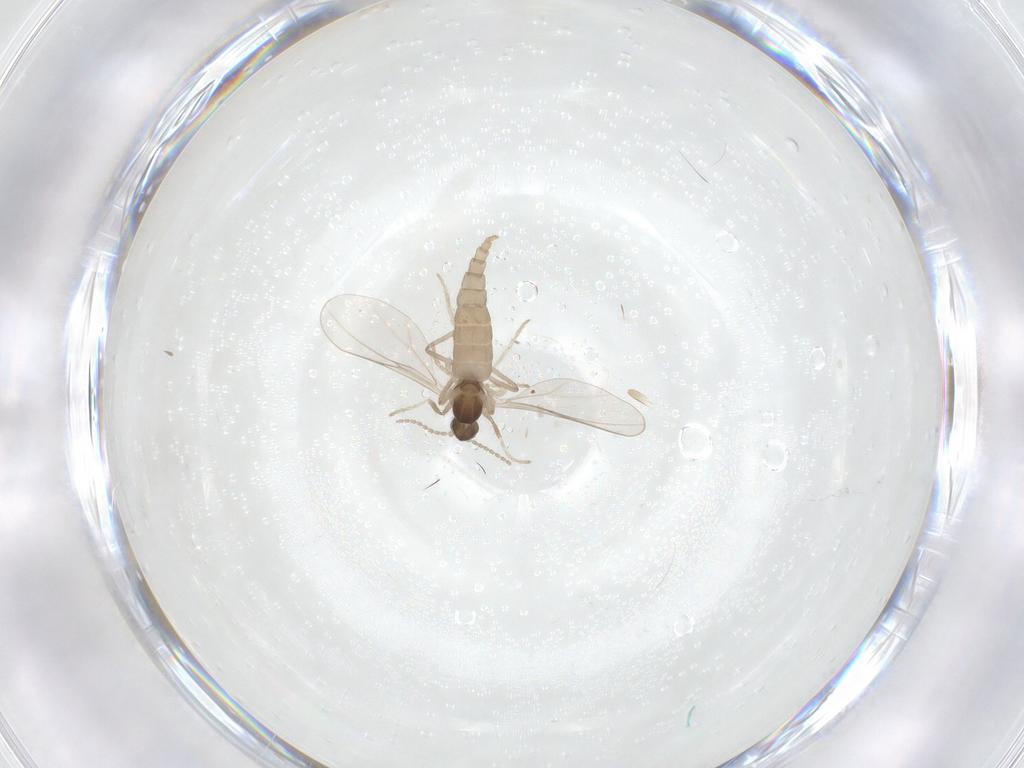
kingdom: Animalia
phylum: Arthropoda
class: Insecta
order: Diptera
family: Cecidomyiidae
